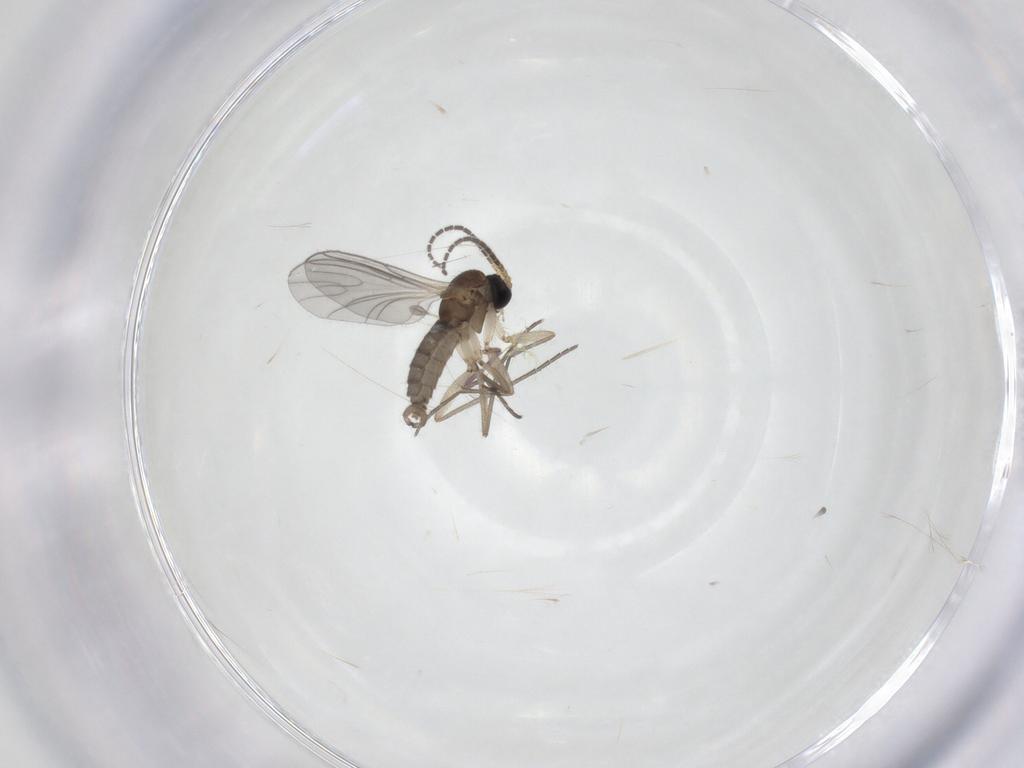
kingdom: Animalia
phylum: Arthropoda
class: Insecta
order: Diptera
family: Sciaridae
